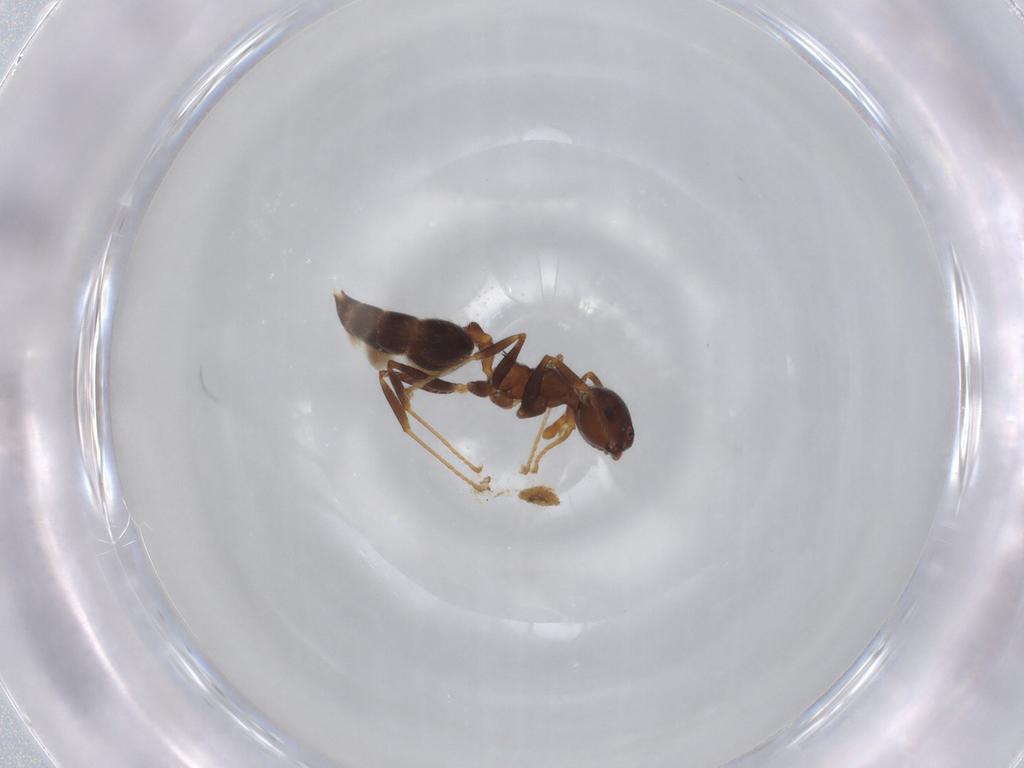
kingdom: Animalia
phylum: Arthropoda
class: Insecta
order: Hymenoptera
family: Formicidae
